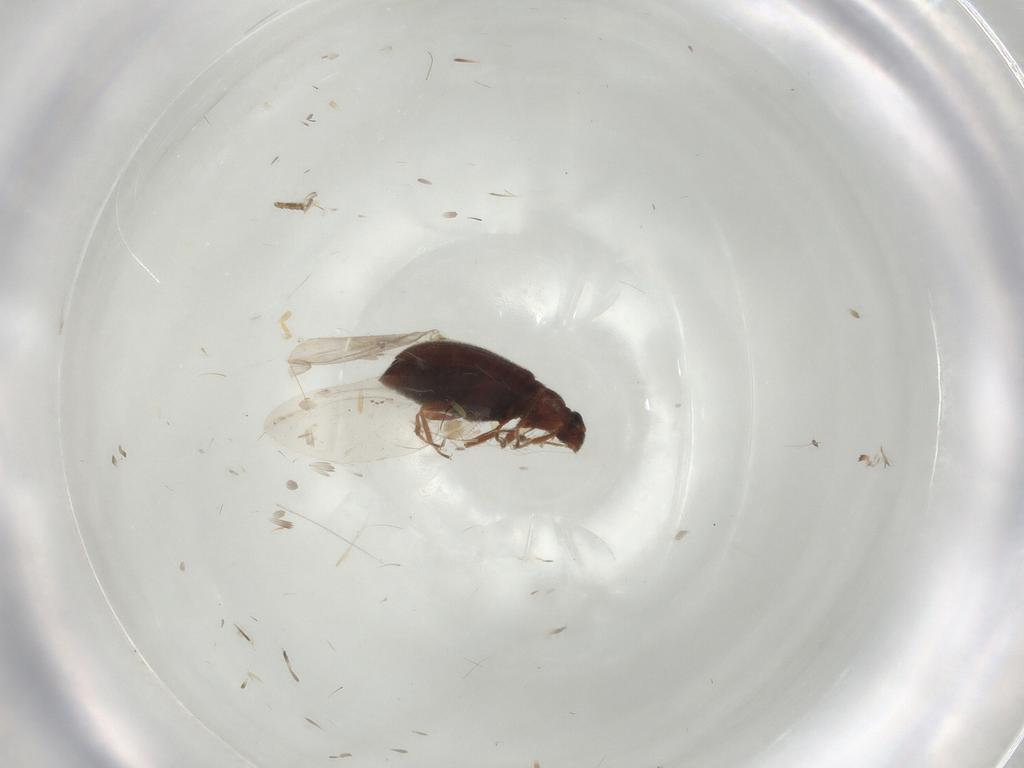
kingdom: Animalia
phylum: Arthropoda
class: Insecta
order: Coleoptera
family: Latridiidae
